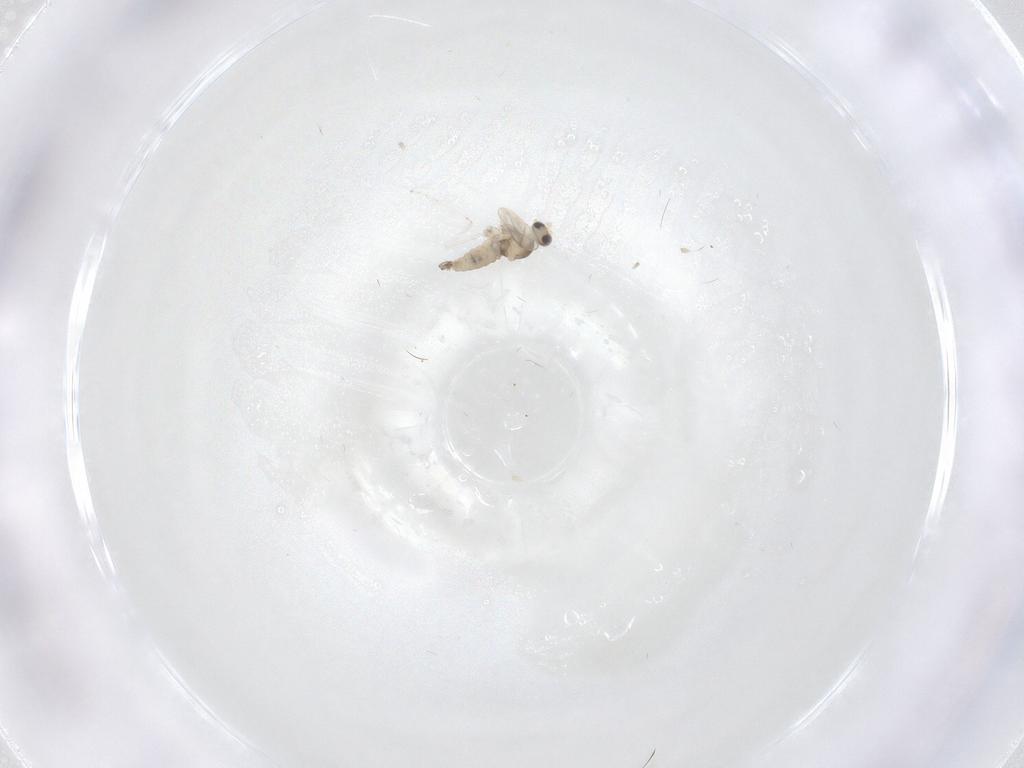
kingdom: Animalia
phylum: Arthropoda
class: Insecta
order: Diptera
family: Cecidomyiidae
